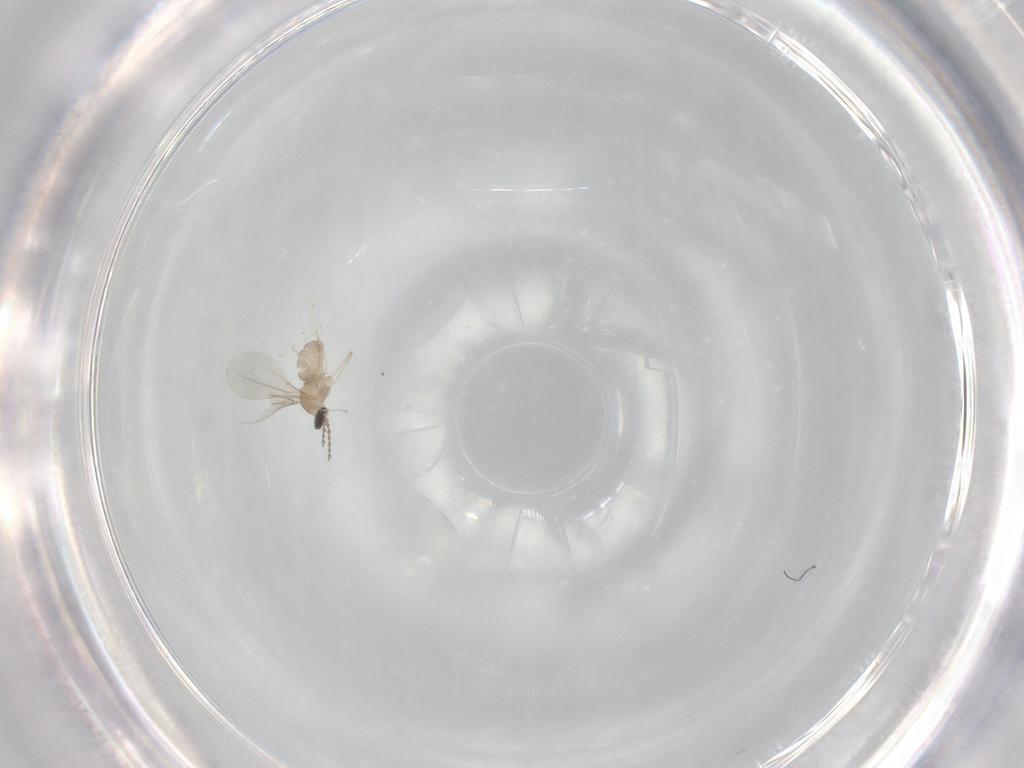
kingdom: Animalia
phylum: Arthropoda
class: Insecta
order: Diptera
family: Cecidomyiidae
